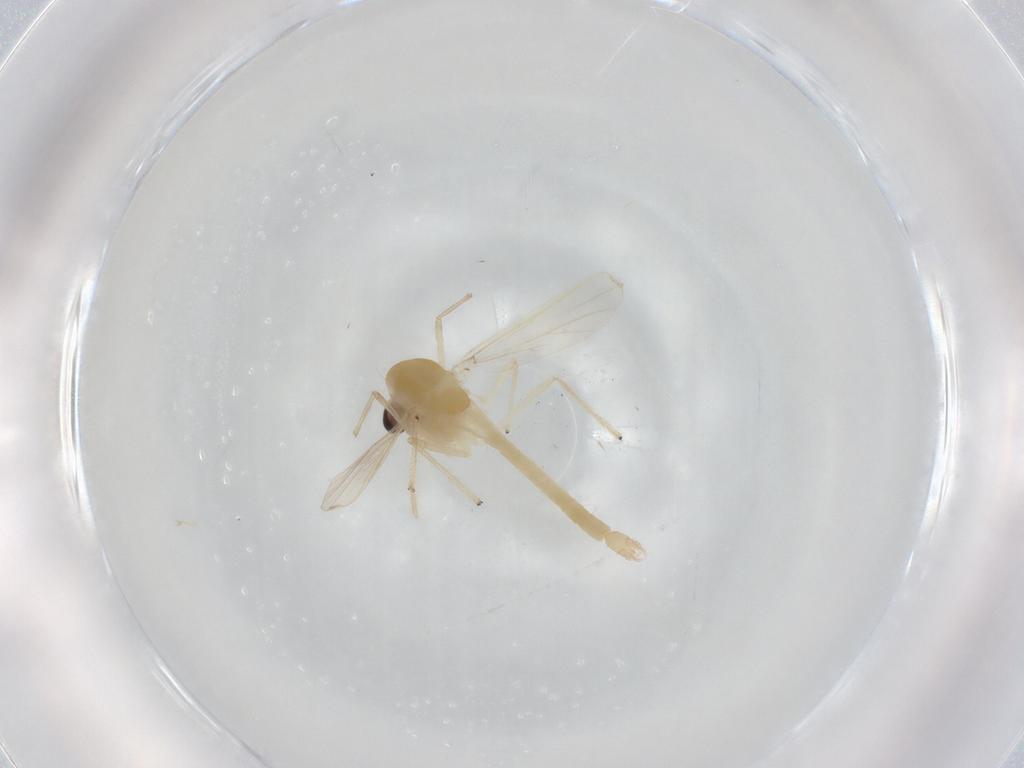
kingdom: Animalia
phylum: Arthropoda
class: Insecta
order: Diptera
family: Chironomidae
